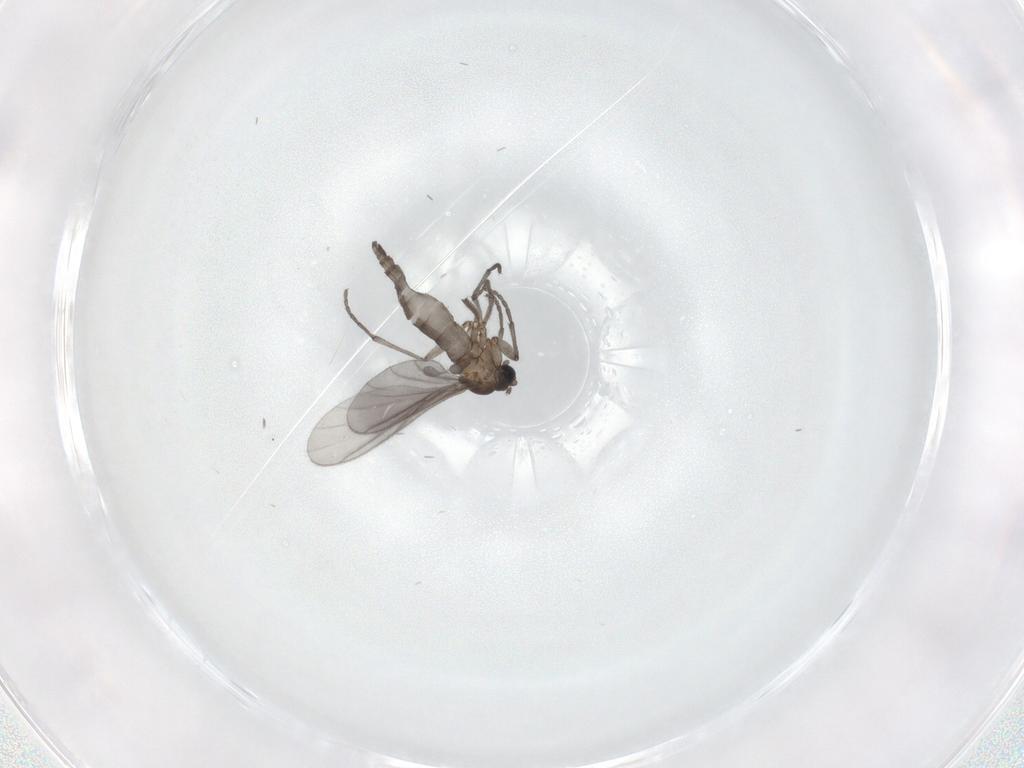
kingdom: Animalia
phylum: Arthropoda
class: Insecta
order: Diptera
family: Sciaridae
